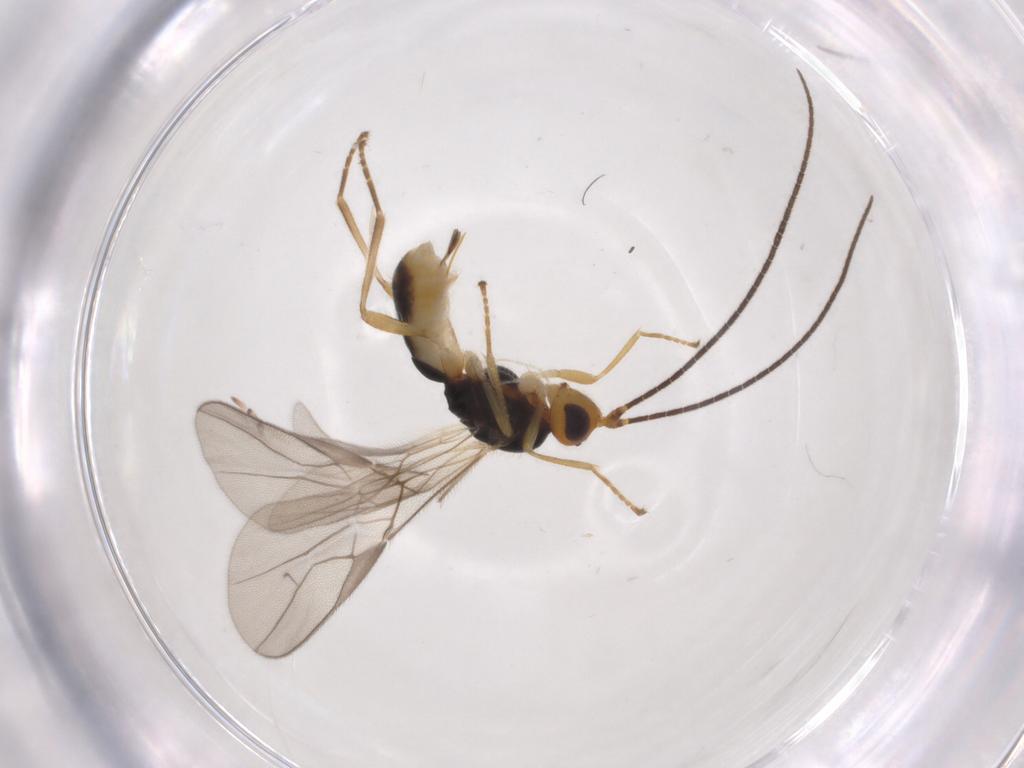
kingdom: Animalia
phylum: Arthropoda
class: Insecta
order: Hymenoptera
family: Braconidae
